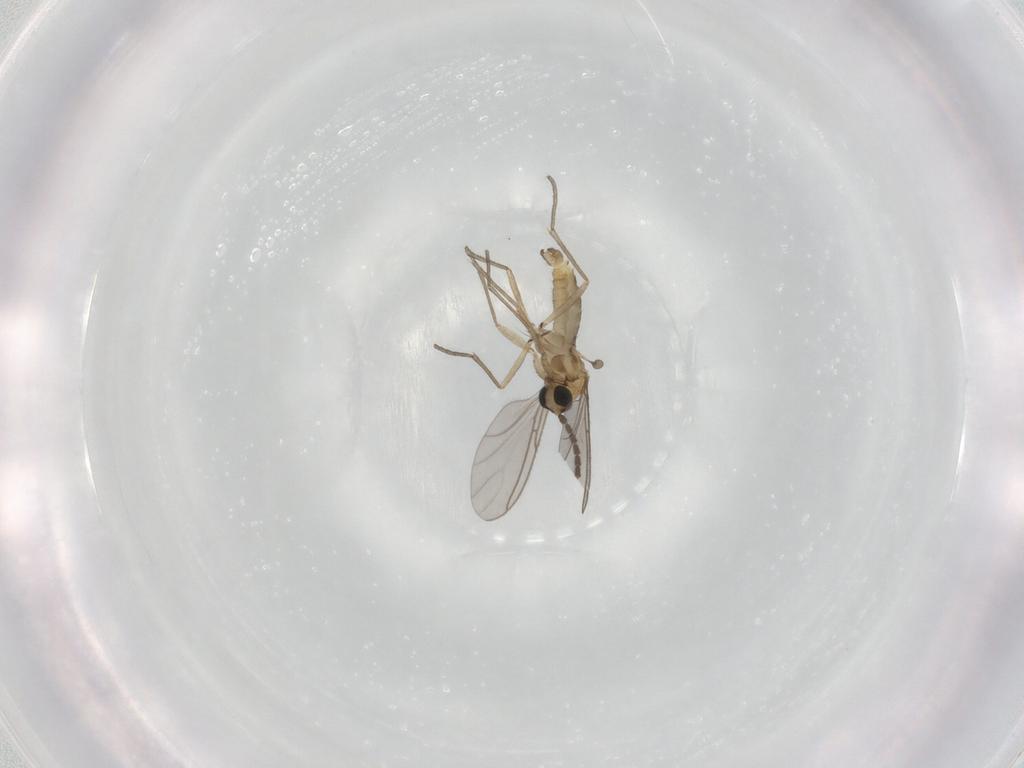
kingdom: Animalia
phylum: Arthropoda
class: Insecta
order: Diptera
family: Sciaridae
